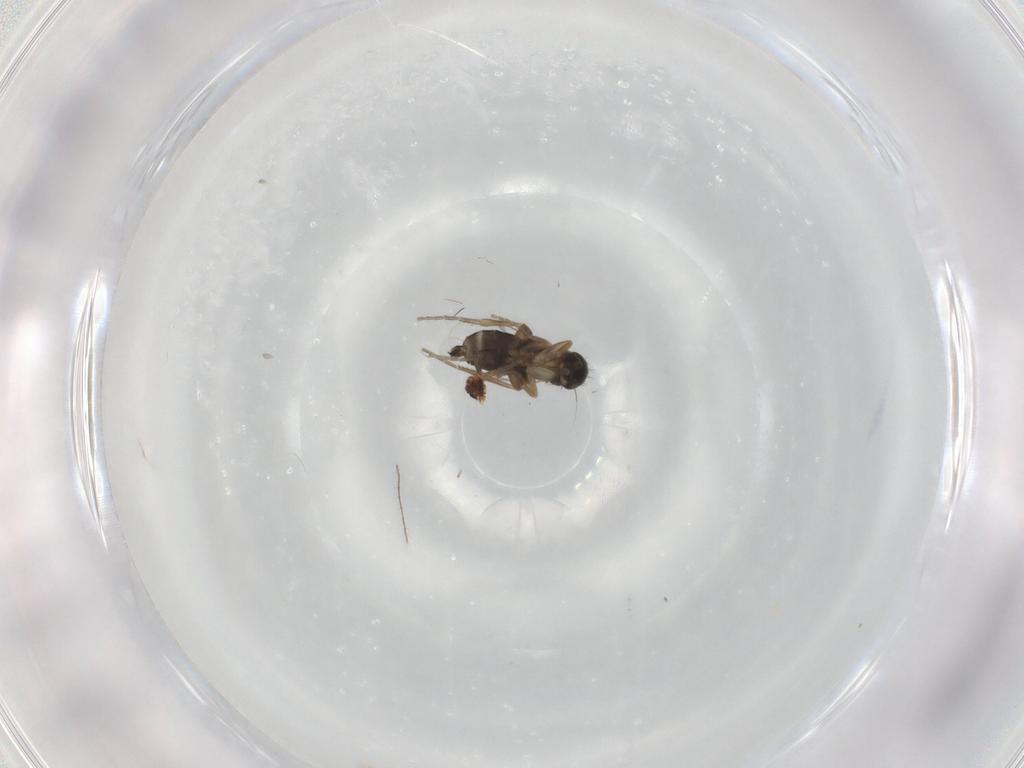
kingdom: Animalia
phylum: Arthropoda
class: Insecta
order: Diptera
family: Phoridae
